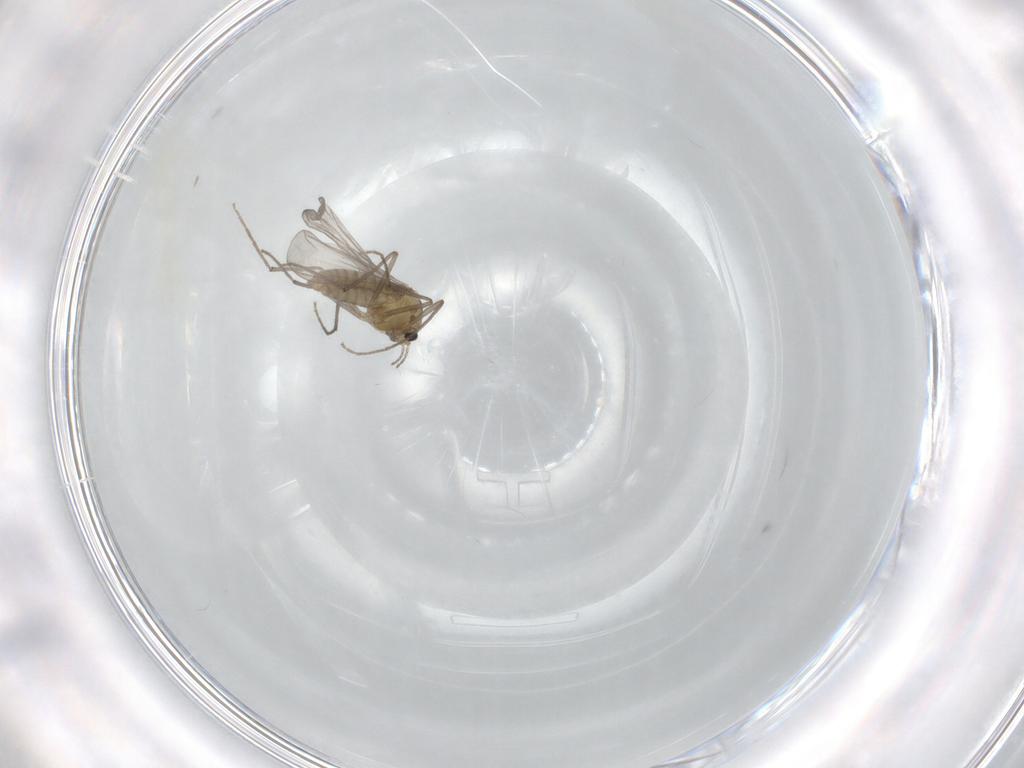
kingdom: Animalia
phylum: Arthropoda
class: Insecta
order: Diptera
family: Chironomidae
